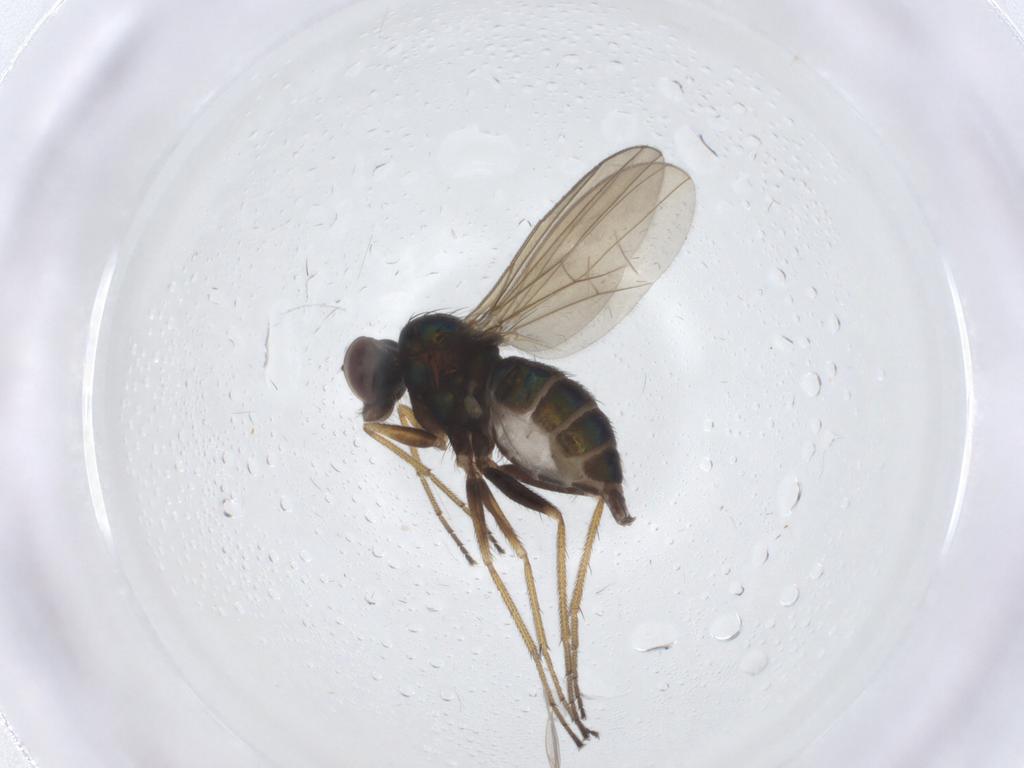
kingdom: Animalia
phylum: Arthropoda
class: Insecta
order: Diptera
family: Dolichopodidae
